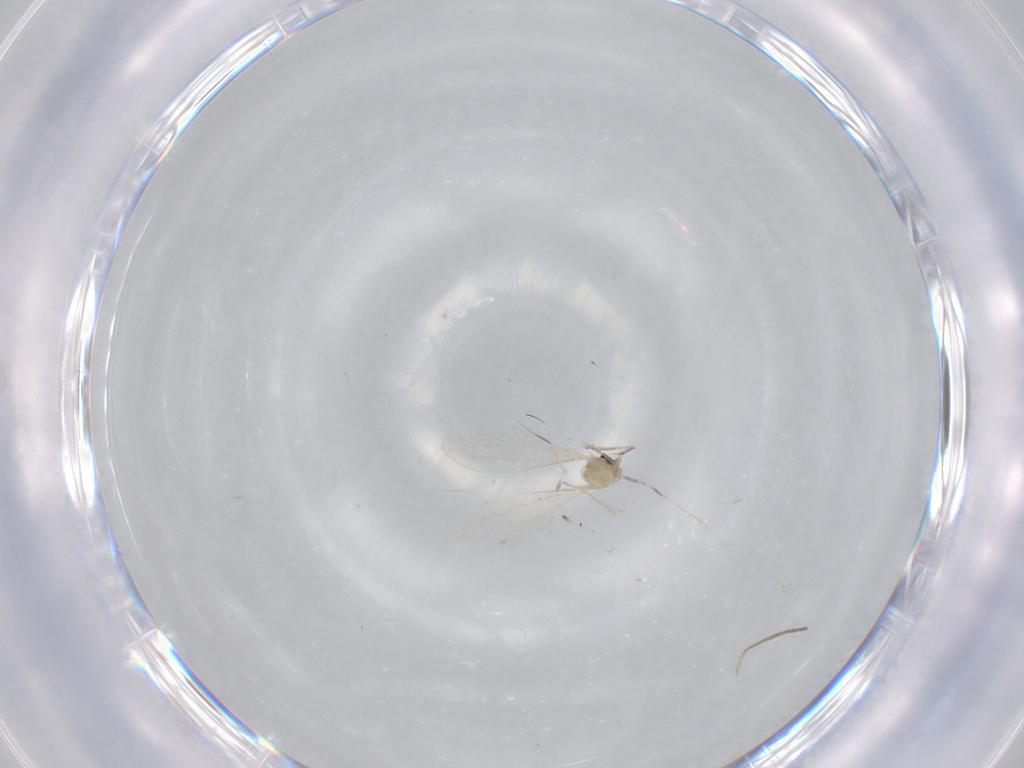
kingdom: Animalia
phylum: Arthropoda
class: Insecta
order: Diptera
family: Cecidomyiidae
